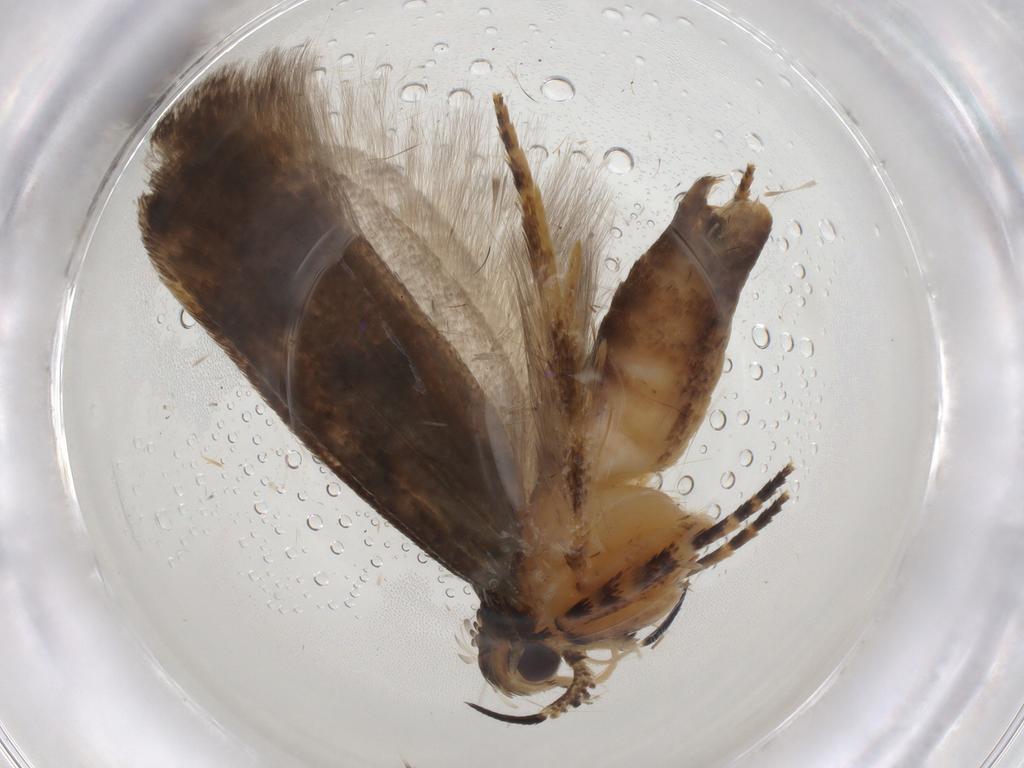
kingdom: Animalia
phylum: Arthropoda
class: Insecta
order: Lepidoptera
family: Gelechiidae
